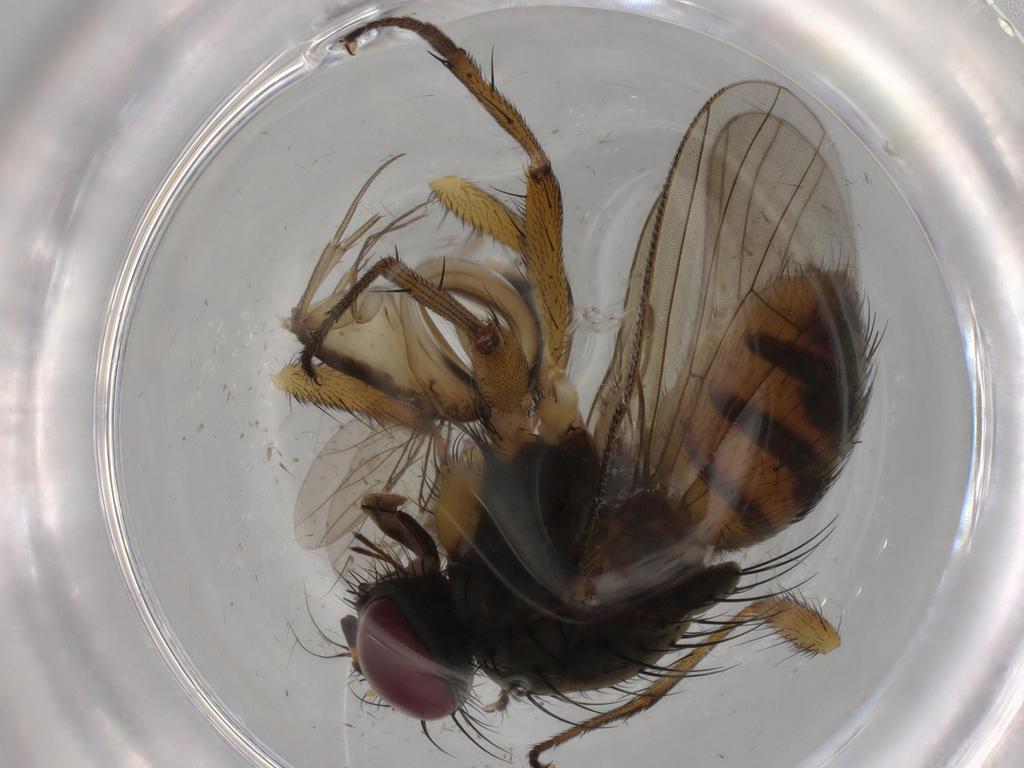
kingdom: Animalia
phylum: Arthropoda
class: Insecta
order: Diptera
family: Muscidae
